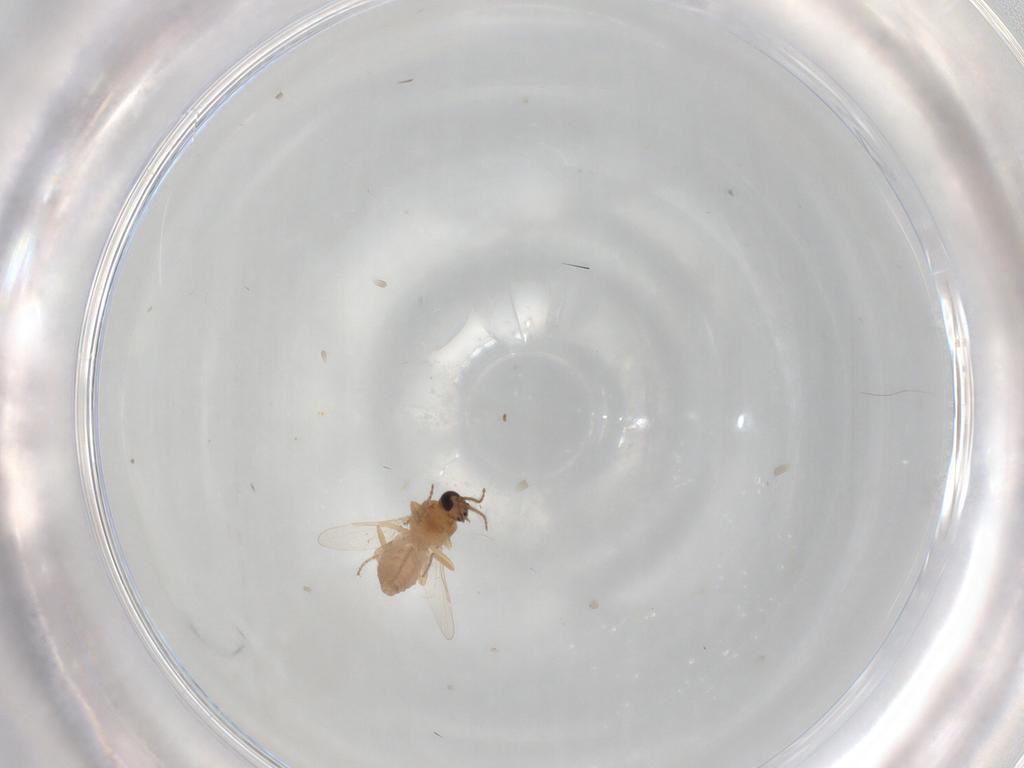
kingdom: Animalia
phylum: Arthropoda
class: Insecta
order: Diptera
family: Ceratopogonidae
